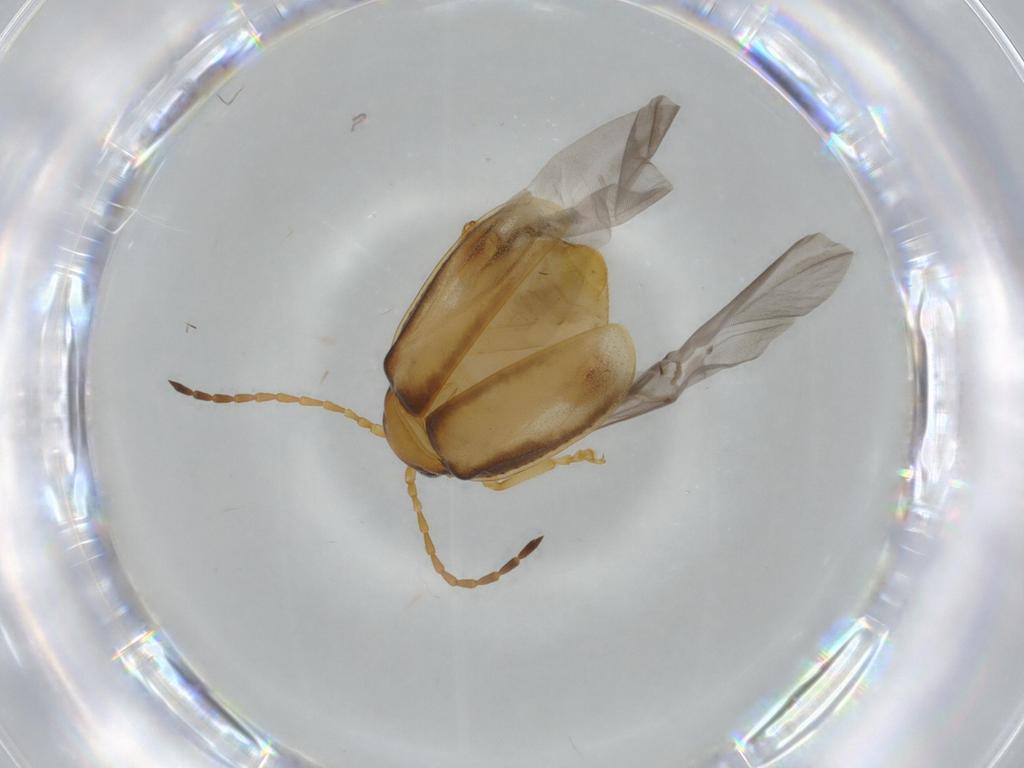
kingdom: Animalia
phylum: Arthropoda
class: Insecta
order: Coleoptera
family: Chrysomelidae
